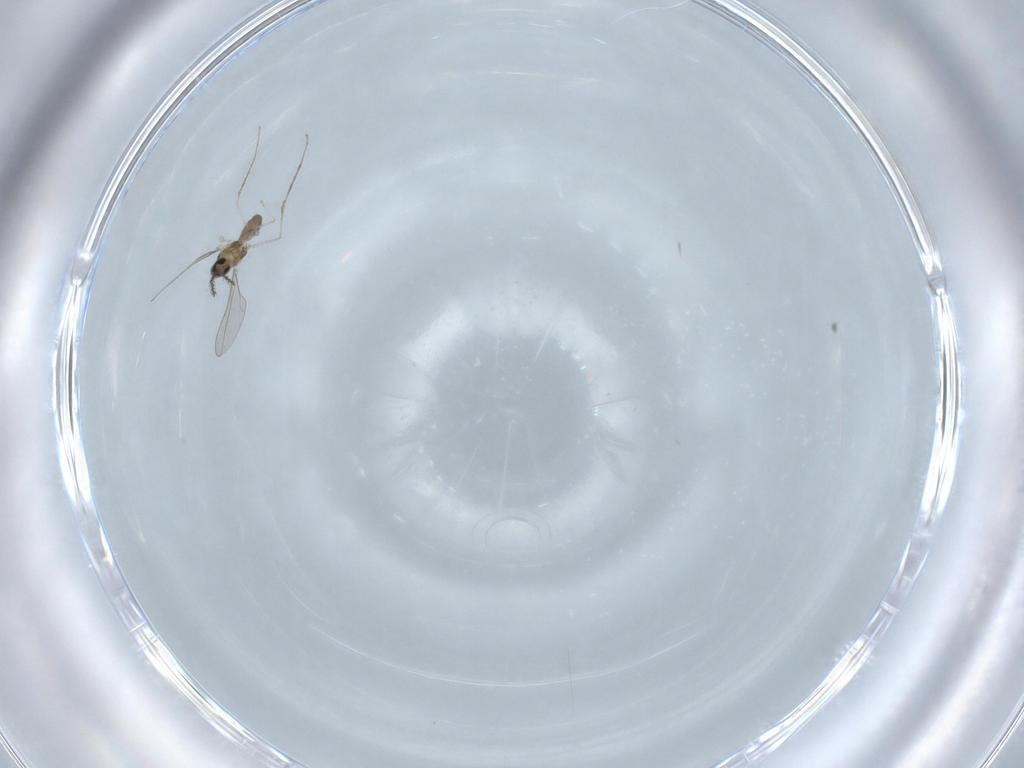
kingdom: Animalia
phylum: Arthropoda
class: Insecta
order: Diptera
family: Cecidomyiidae
